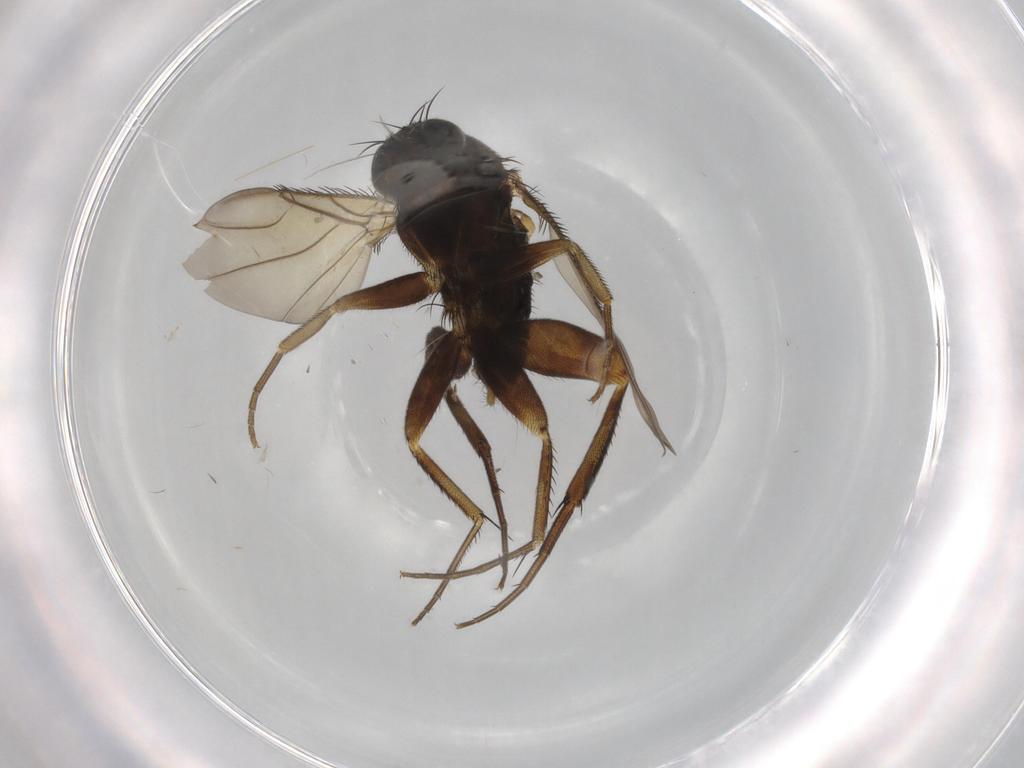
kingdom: Animalia
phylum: Arthropoda
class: Insecta
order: Diptera
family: Phoridae
